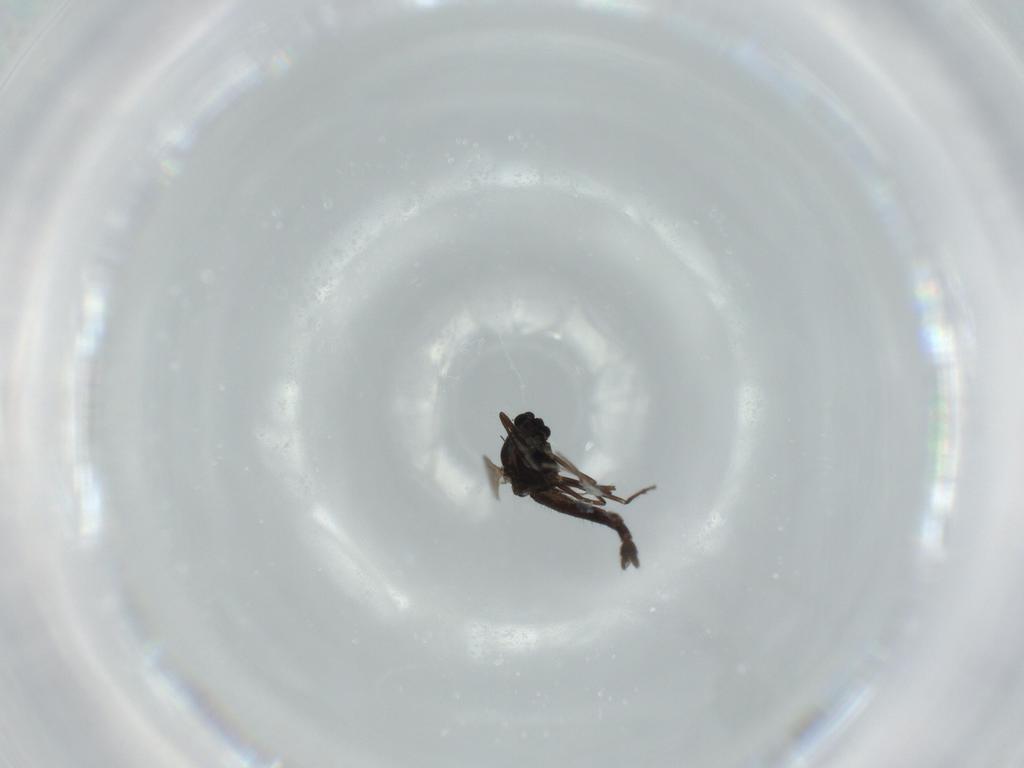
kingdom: Animalia
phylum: Arthropoda
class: Insecta
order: Diptera
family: Chironomidae
